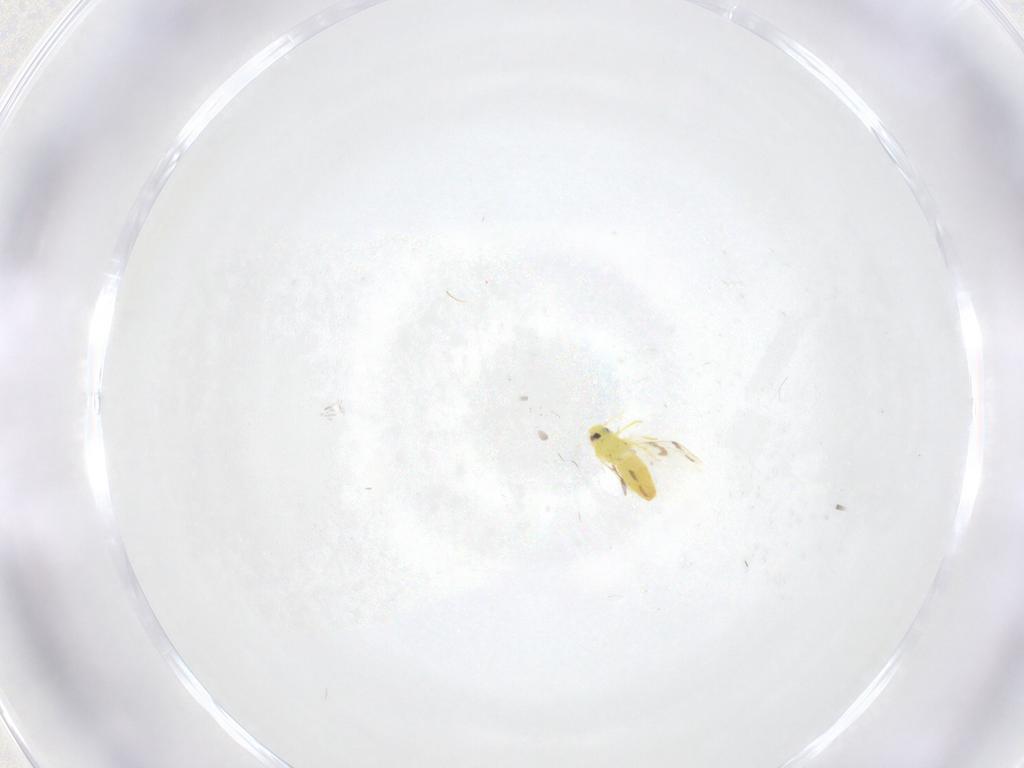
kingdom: Animalia
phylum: Arthropoda
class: Insecta
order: Hemiptera
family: Aleyrodidae
